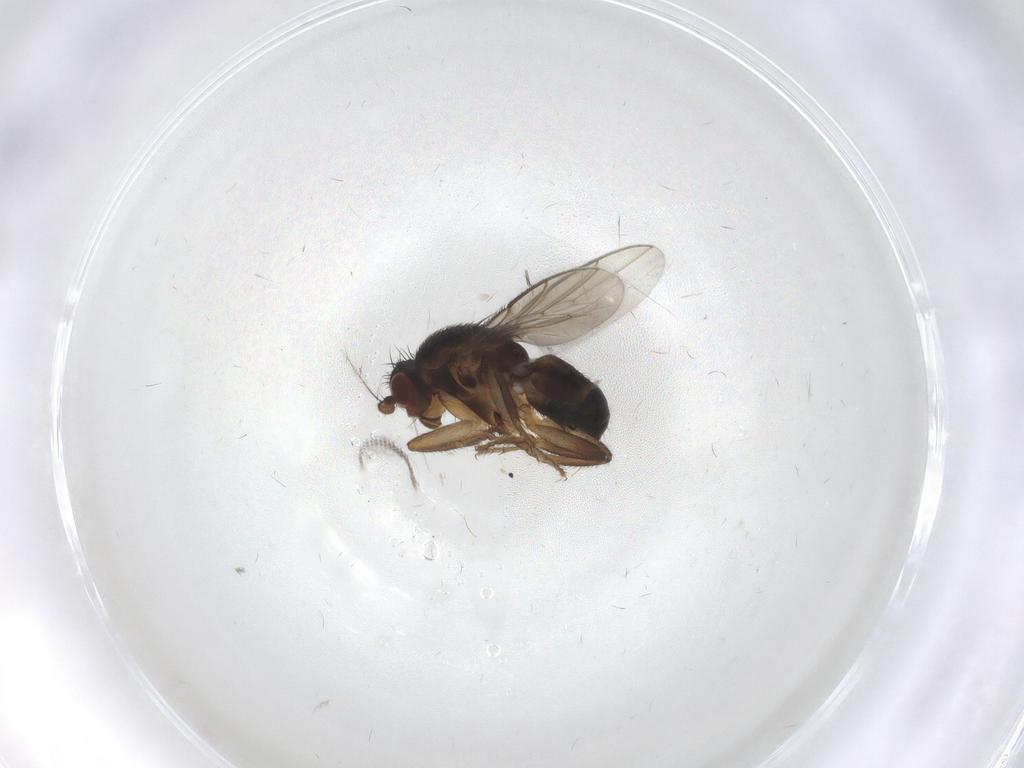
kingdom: Animalia
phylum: Arthropoda
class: Insecta
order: Diptera
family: Sphaeroceridae
